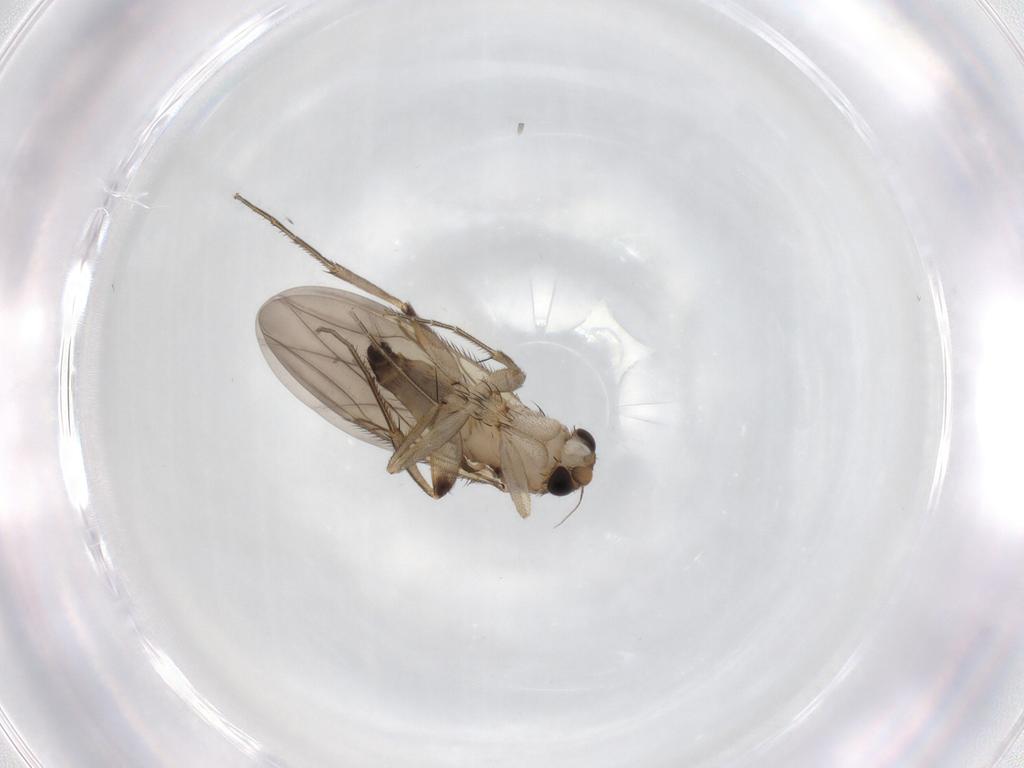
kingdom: Animalia
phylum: Arthropoda
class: Insecta
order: Diptera
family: Phoridae
